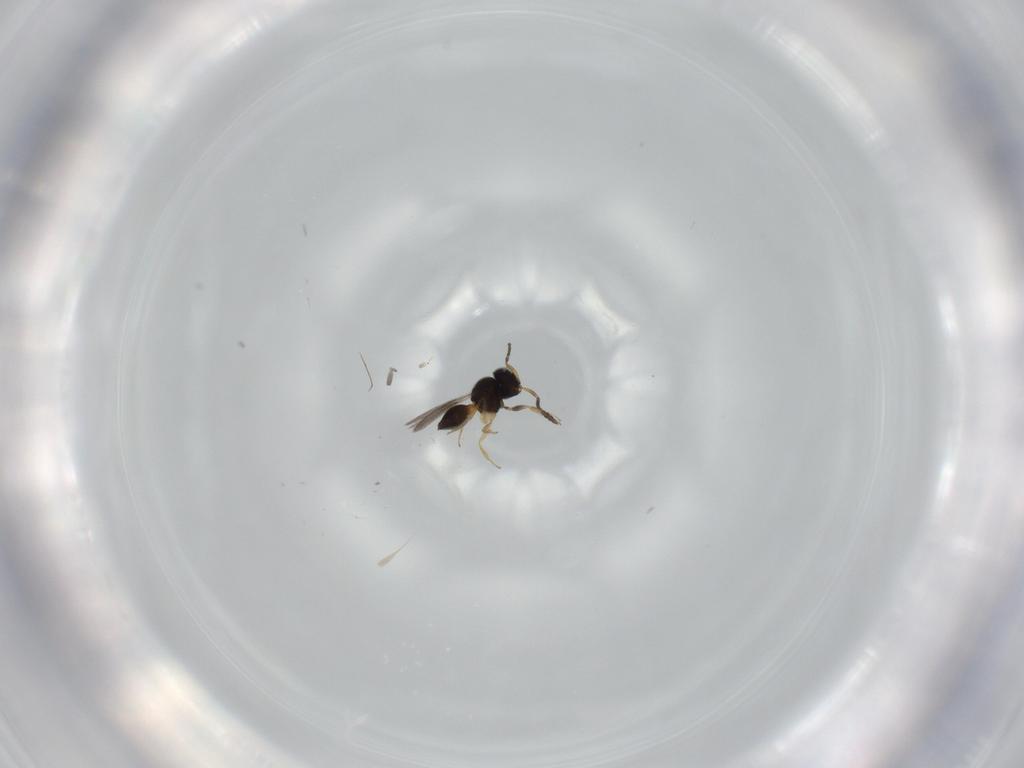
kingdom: Animalia
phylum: Arthropoda
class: Insecta
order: Hymenoptera
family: Scelionidae
